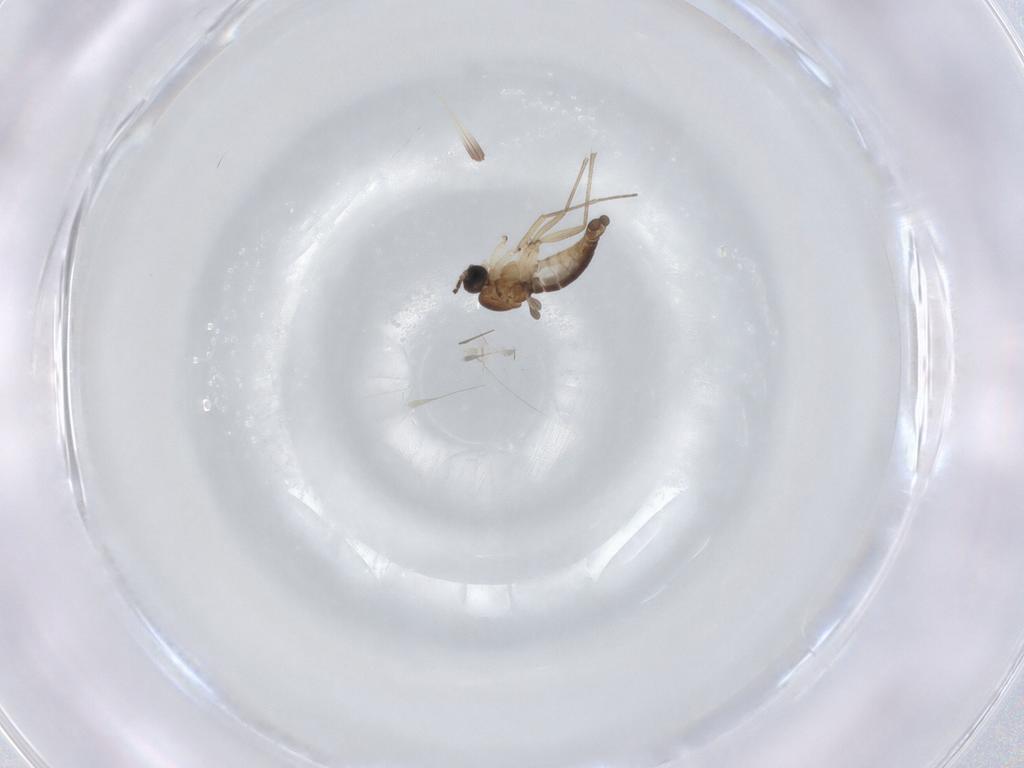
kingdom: Animalia
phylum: Arthropoda
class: Insecta
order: Diptera
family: Sciaridae
